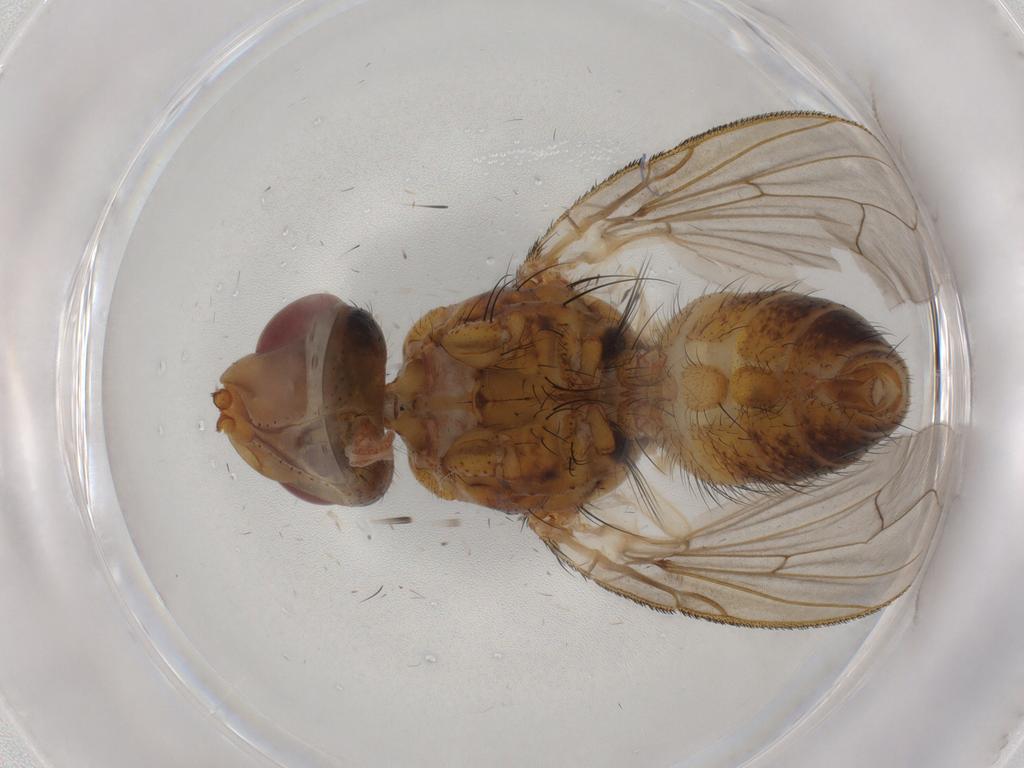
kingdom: Animalia
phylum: Arthropoda
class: Insecta
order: Diptera
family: Tachinidae
